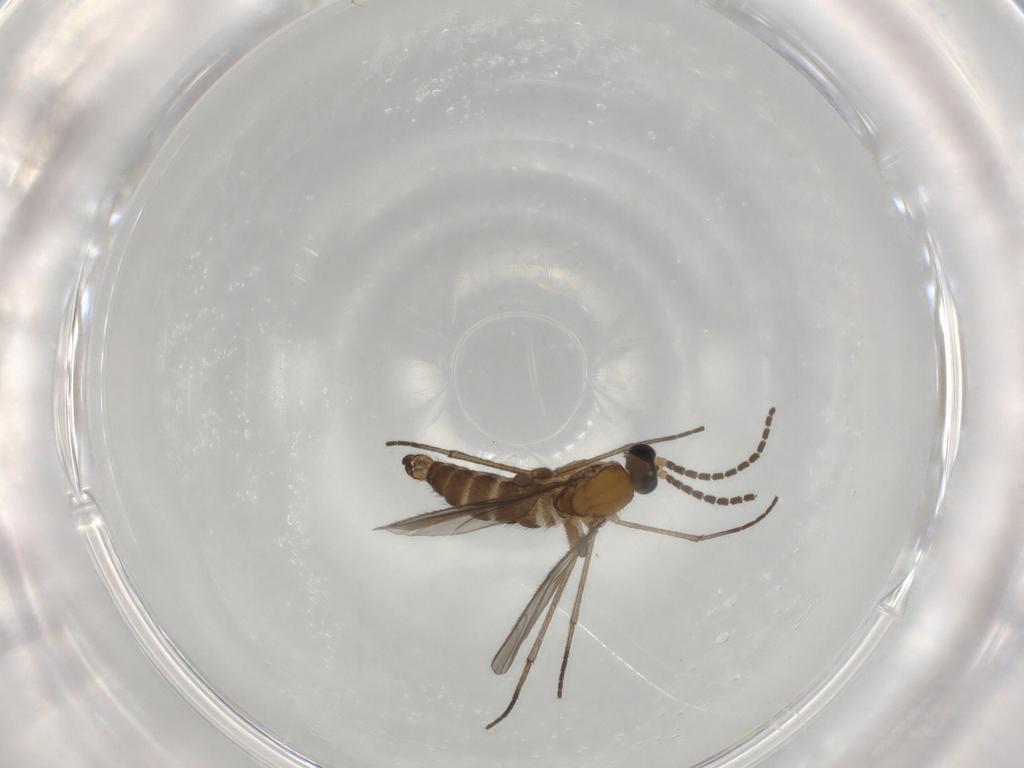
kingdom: Animalia
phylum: Arthropoda
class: Insecta
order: Diptera
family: Sciaridae
